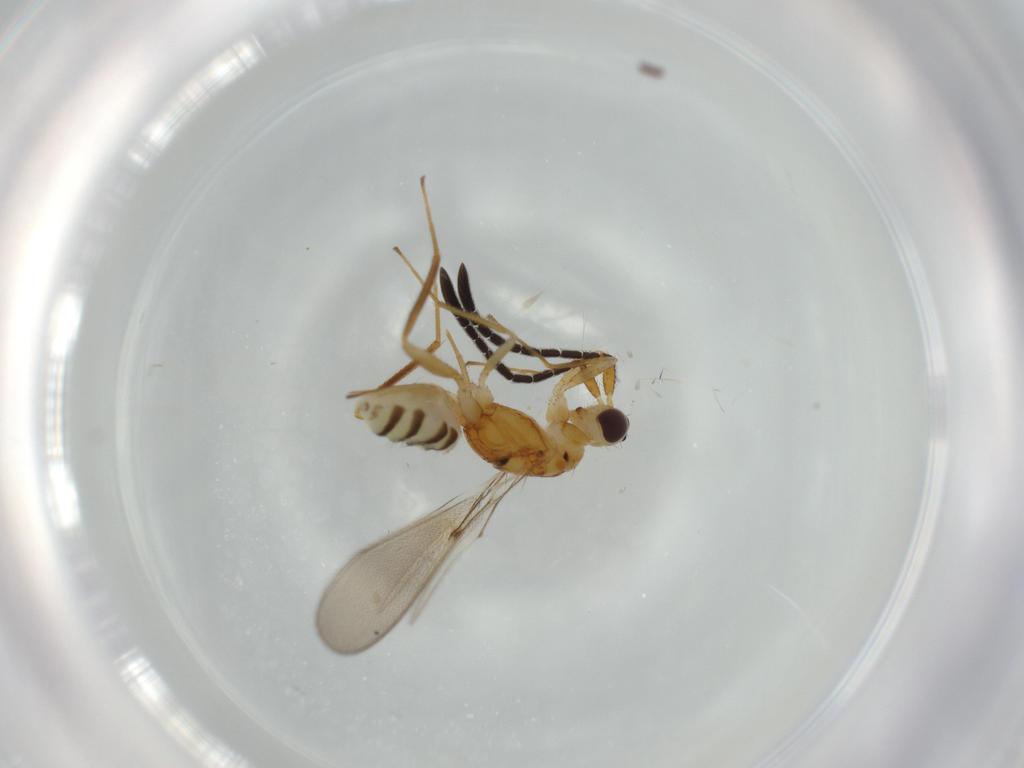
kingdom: Animalia
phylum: Arthropoda
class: Insecta
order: Hymenoptera
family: Mymaridae
